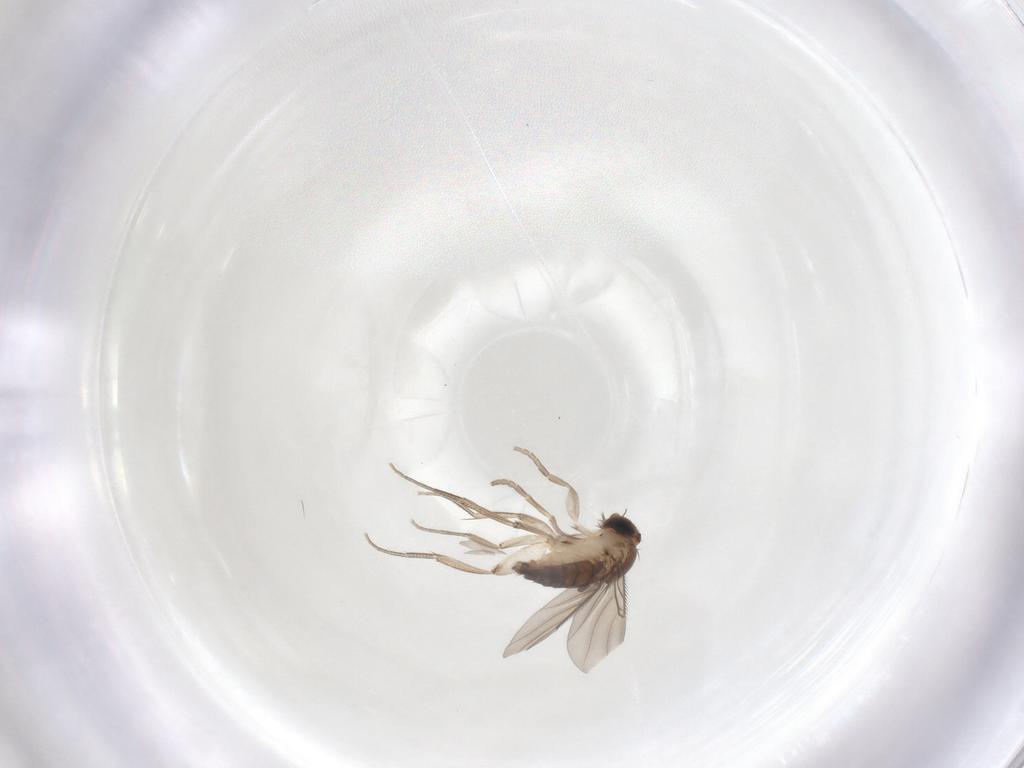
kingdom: Animalia
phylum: Arthropoda
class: Insecta
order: Diptera
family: Phoridae
